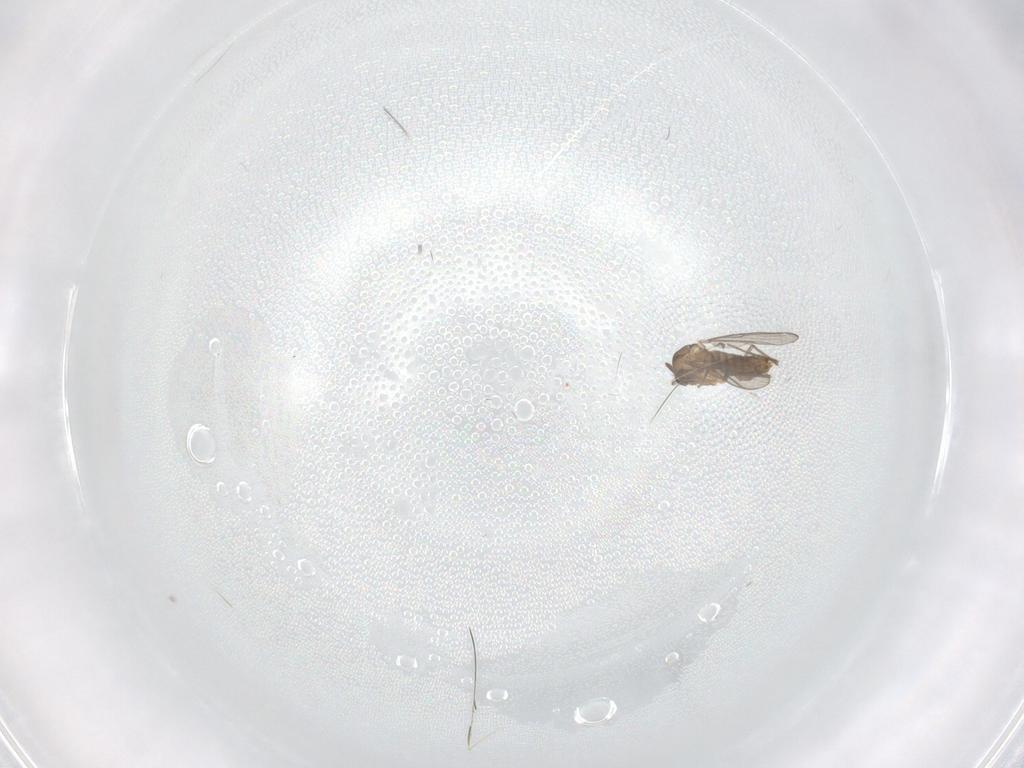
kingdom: Animalia
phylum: Arthropoda
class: Insecta
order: Diptera
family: Chironomidae
